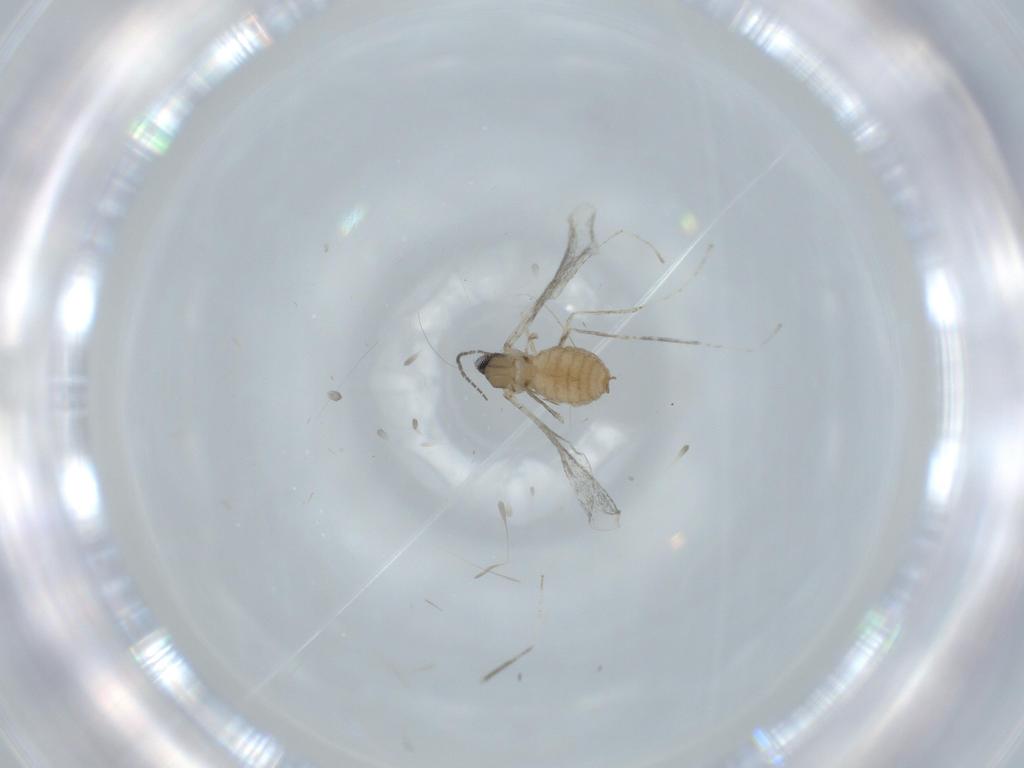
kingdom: Animalia
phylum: Arthropoda
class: Insecta
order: Diptera
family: Cecidomyiidae
